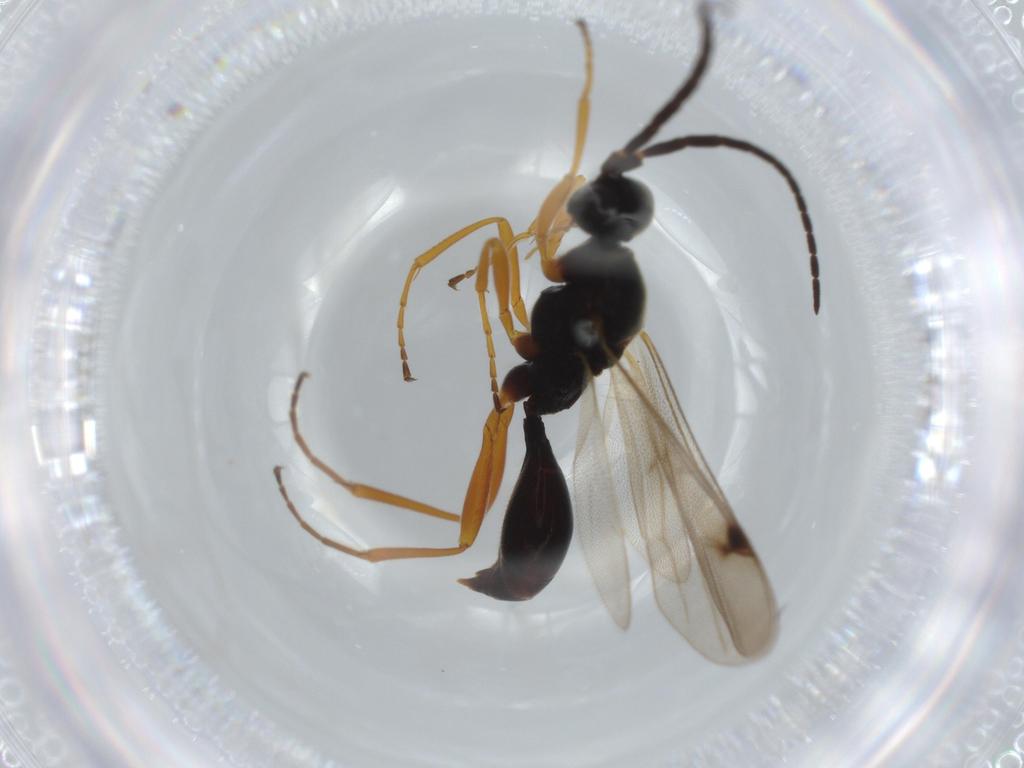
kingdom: Animalia
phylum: Arthropoda
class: Insecta
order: Hymenoptera
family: Proctotrupidae
